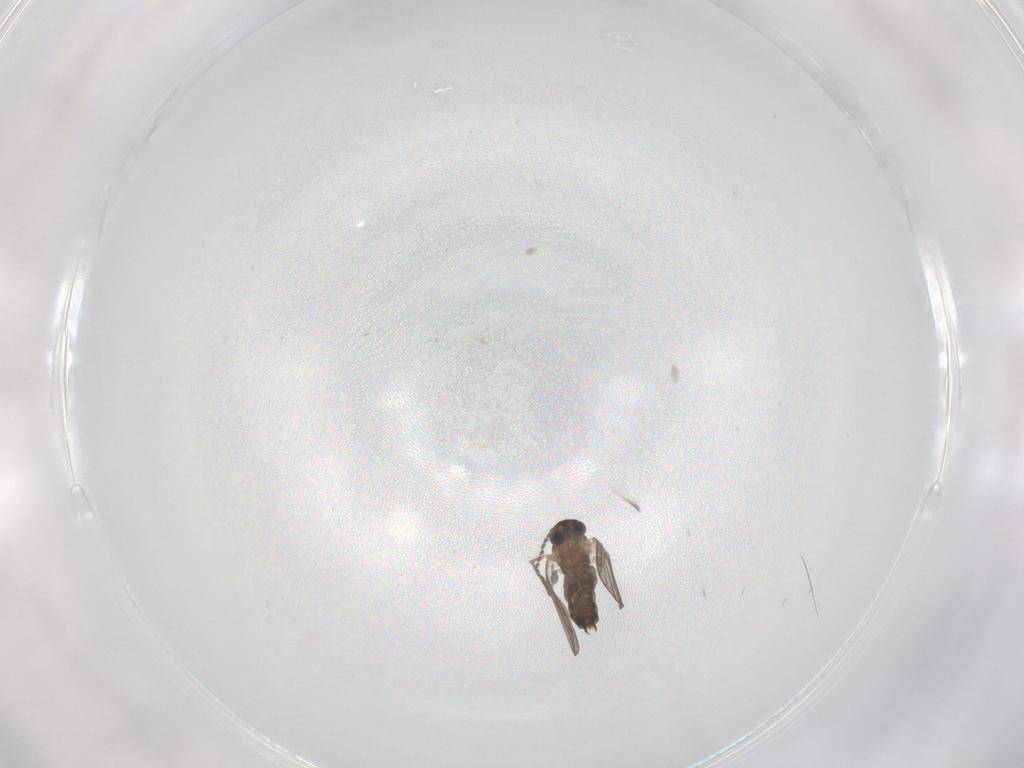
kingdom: Animalia
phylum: Arthropoda
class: Insecta
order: Diptera
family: Psychodidae
